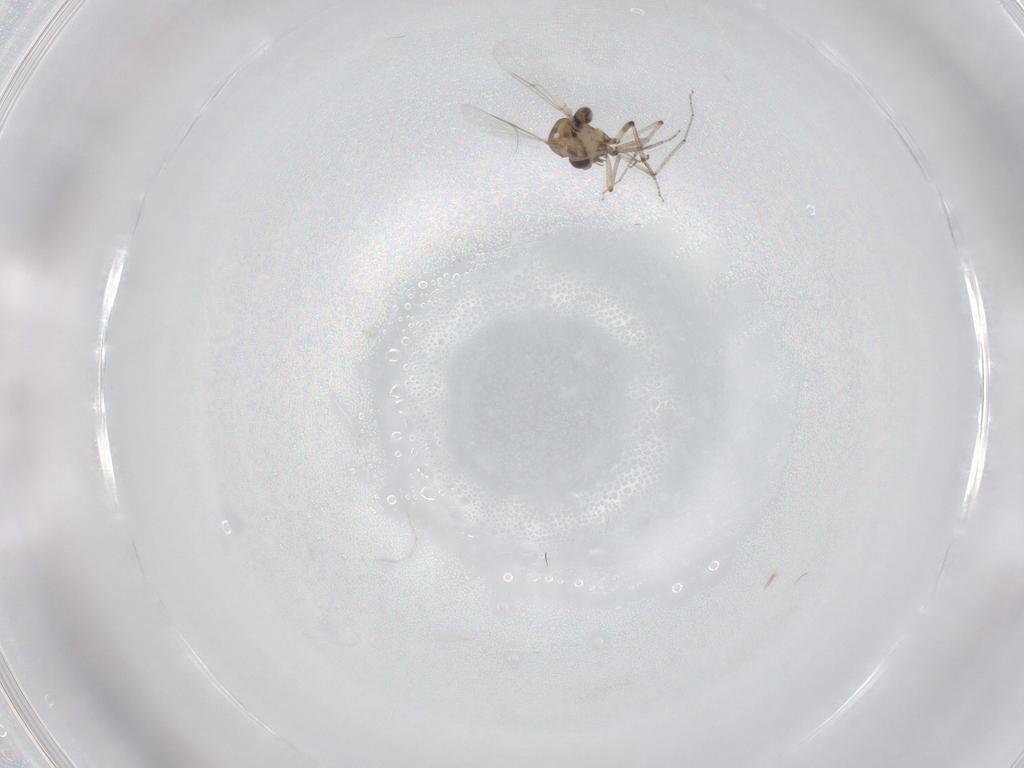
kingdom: Animalia
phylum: Arthropoda
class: Insecta
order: Diptera
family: Ceratopogonidae
